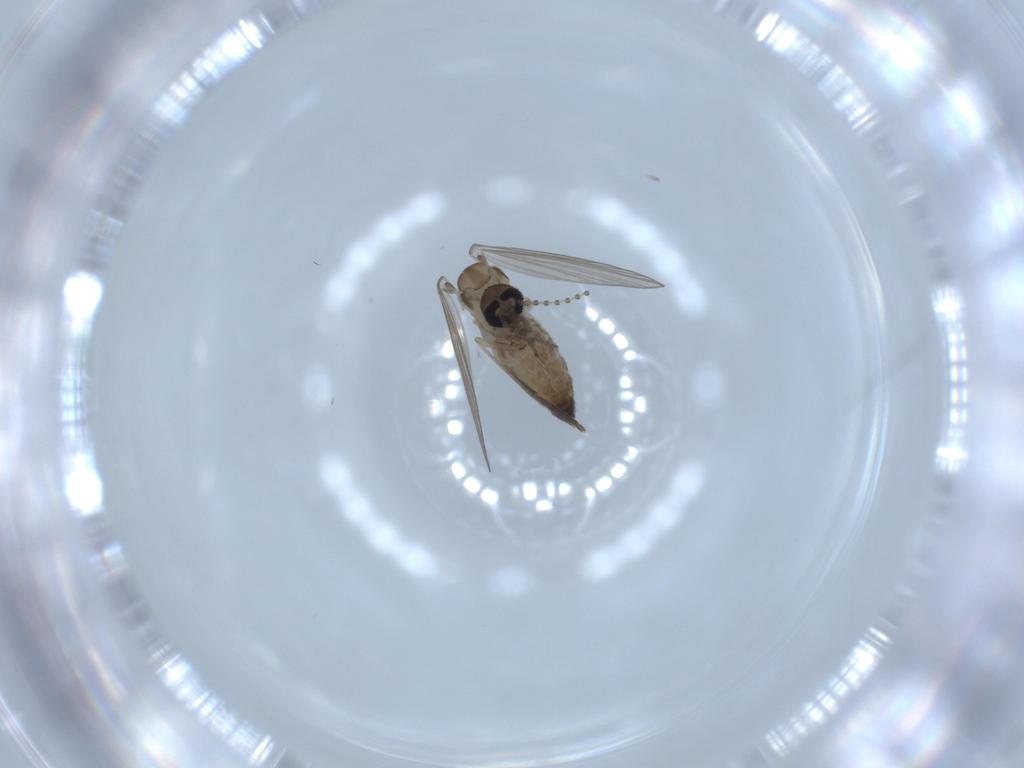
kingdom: Animalia
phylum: Arthropoda
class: Insecta
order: Diptera
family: Psychodidae
